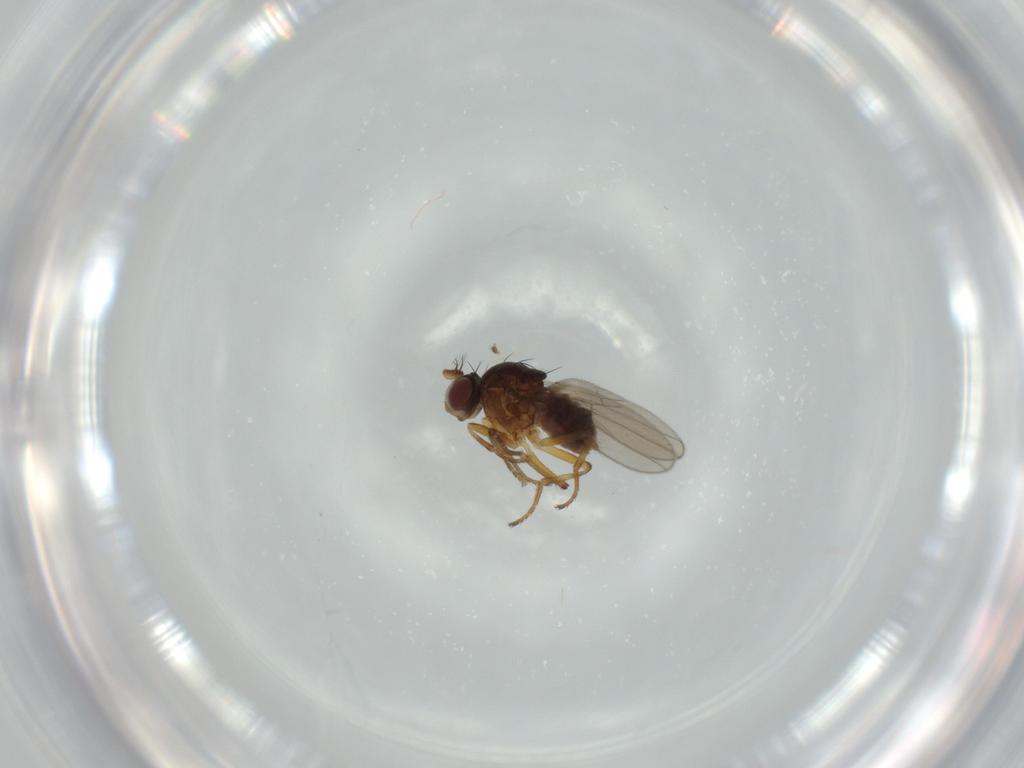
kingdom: Animalia
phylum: Arthropoda
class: Insecta
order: Diptera
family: Ephydridae
